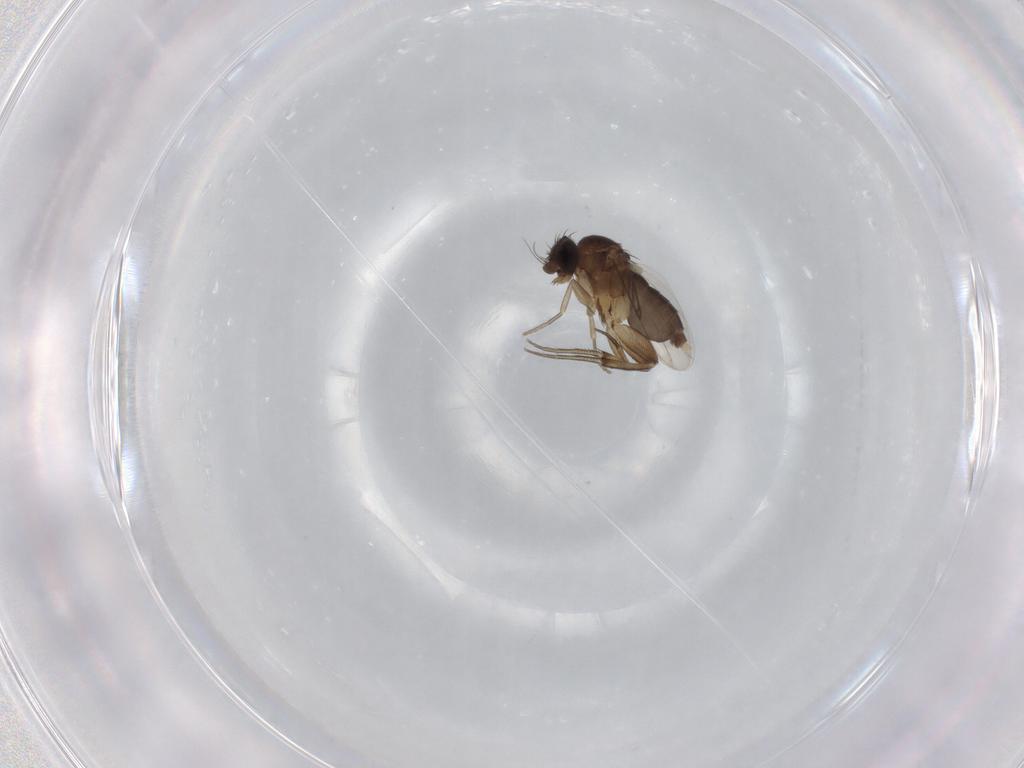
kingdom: Animalia
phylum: Arthropoda
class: Insecta
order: Diptera
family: Phoridae
